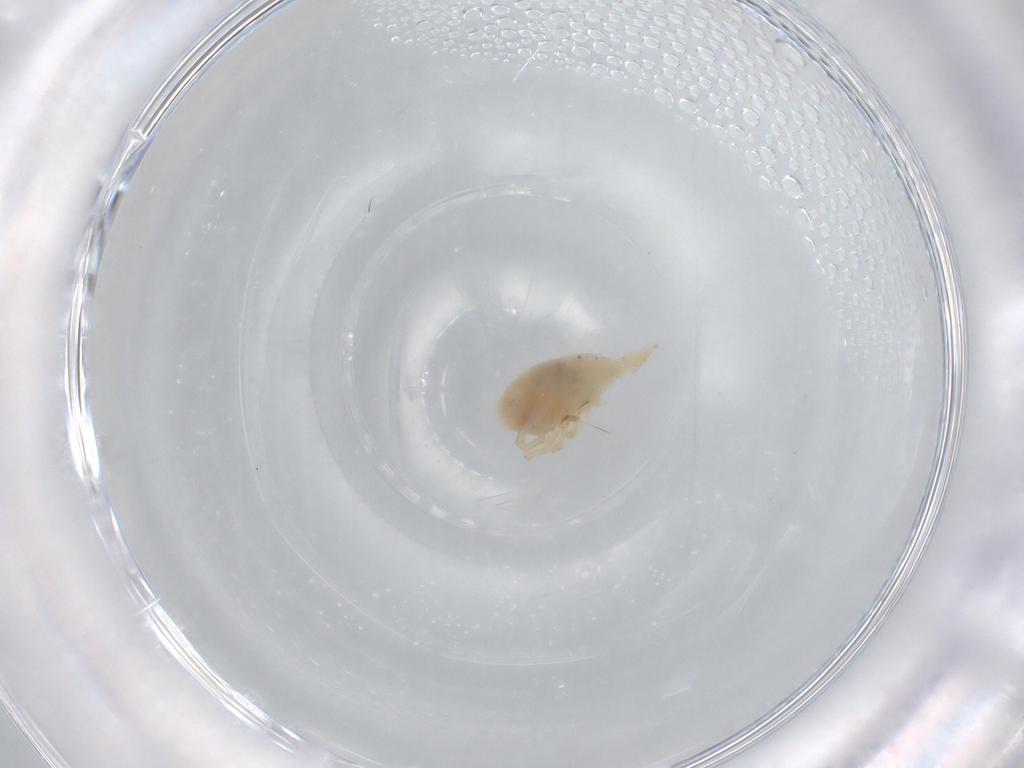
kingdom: Animalia
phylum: Arthropoda
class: Arachnida
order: Trombidiformes
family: Bdellidae
